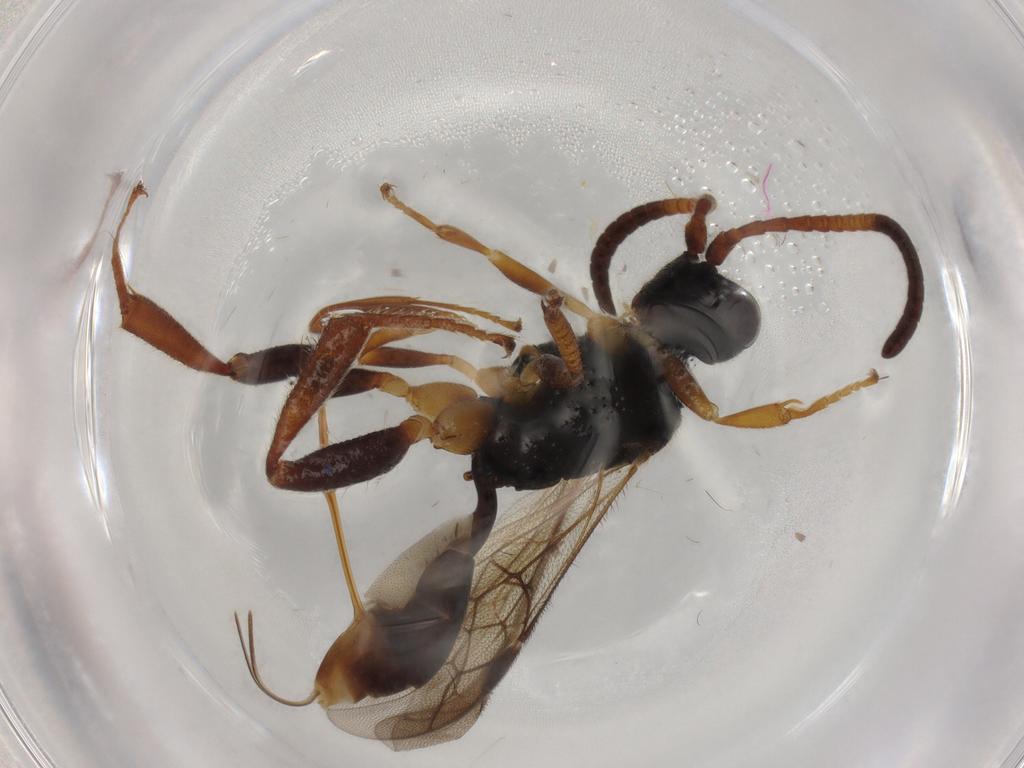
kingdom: Animalia
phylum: Arthropoda
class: Insecta
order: Hymenoptera
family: Ichneumonidae
